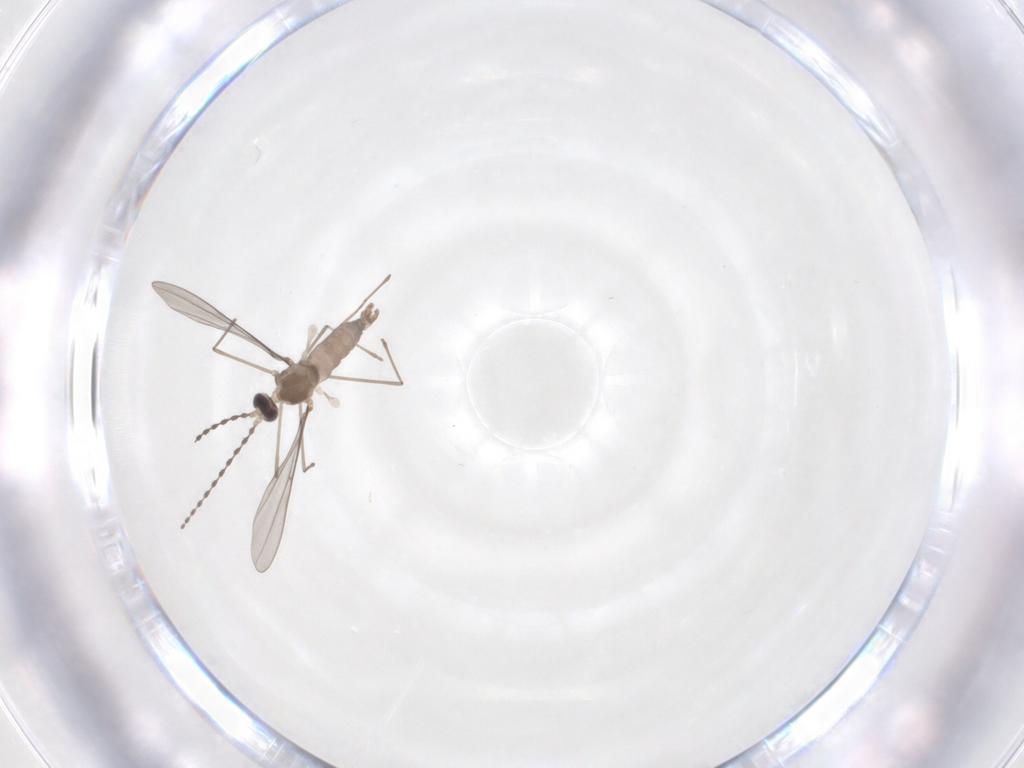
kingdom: Animalia
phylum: Arthropoda
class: Insecta
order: Diptera
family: Cecidomyiidae
